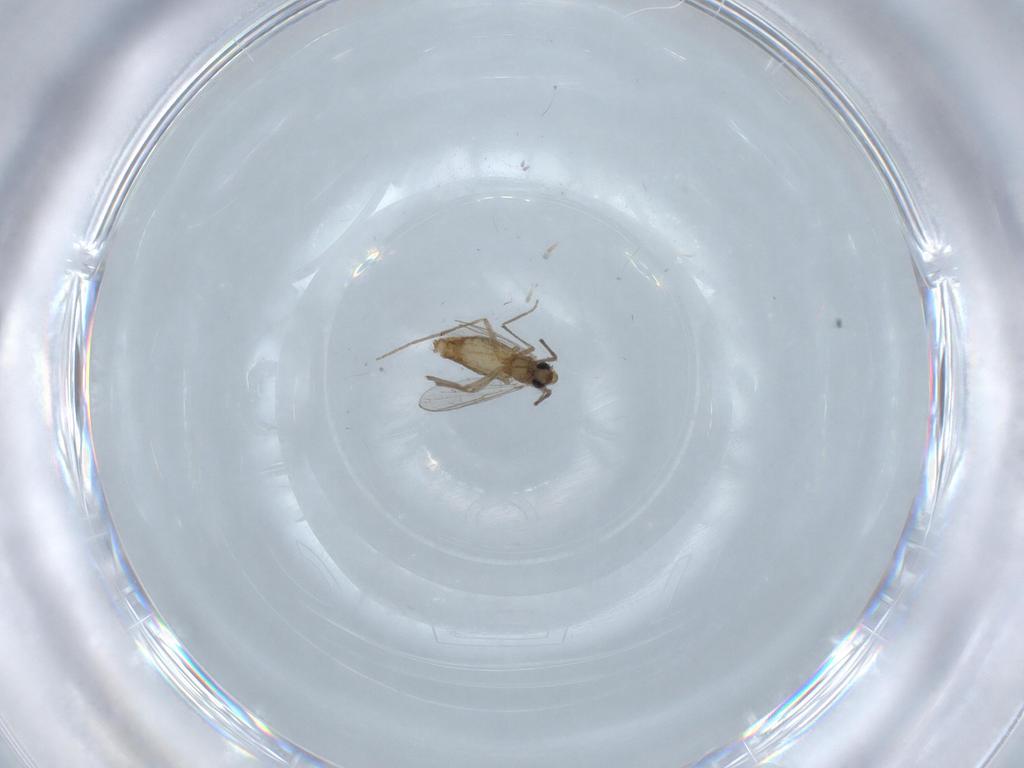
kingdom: Animalia
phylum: Arthropoda
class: Insecta
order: Diptera
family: Chironomidae
